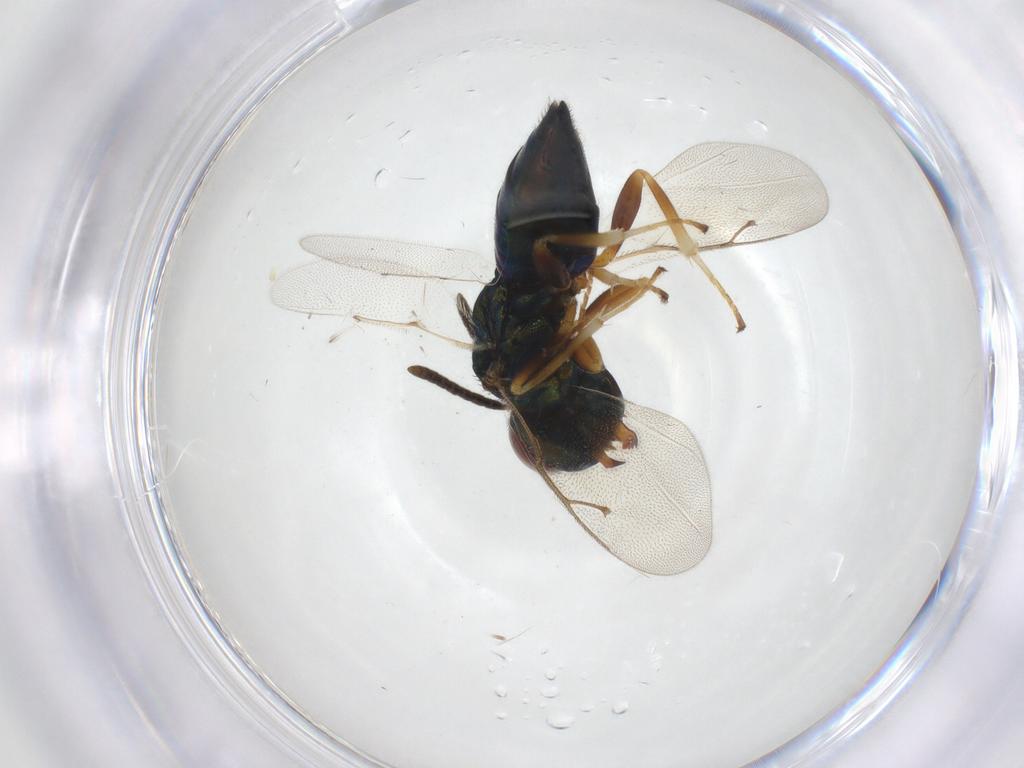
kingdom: Animalia
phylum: Arthropoda
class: Insecta
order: Hymenoptera
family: Pteromalidae
